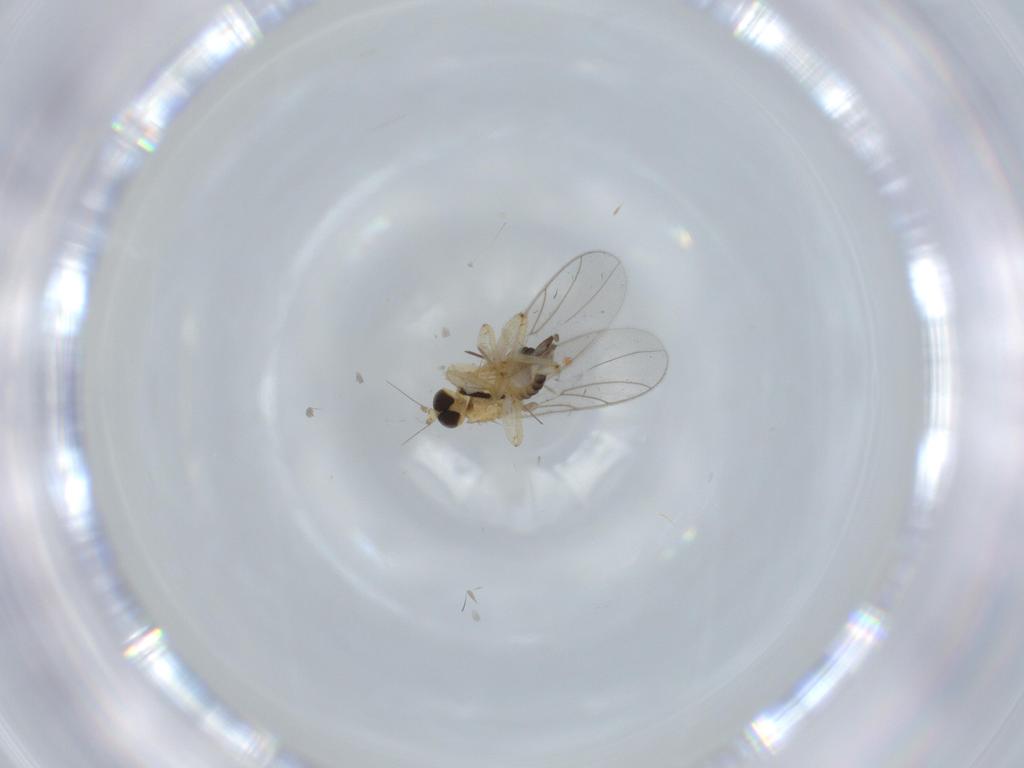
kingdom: Animalia
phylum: Arthropoda
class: Insecta
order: Diptera
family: Hybotidae
